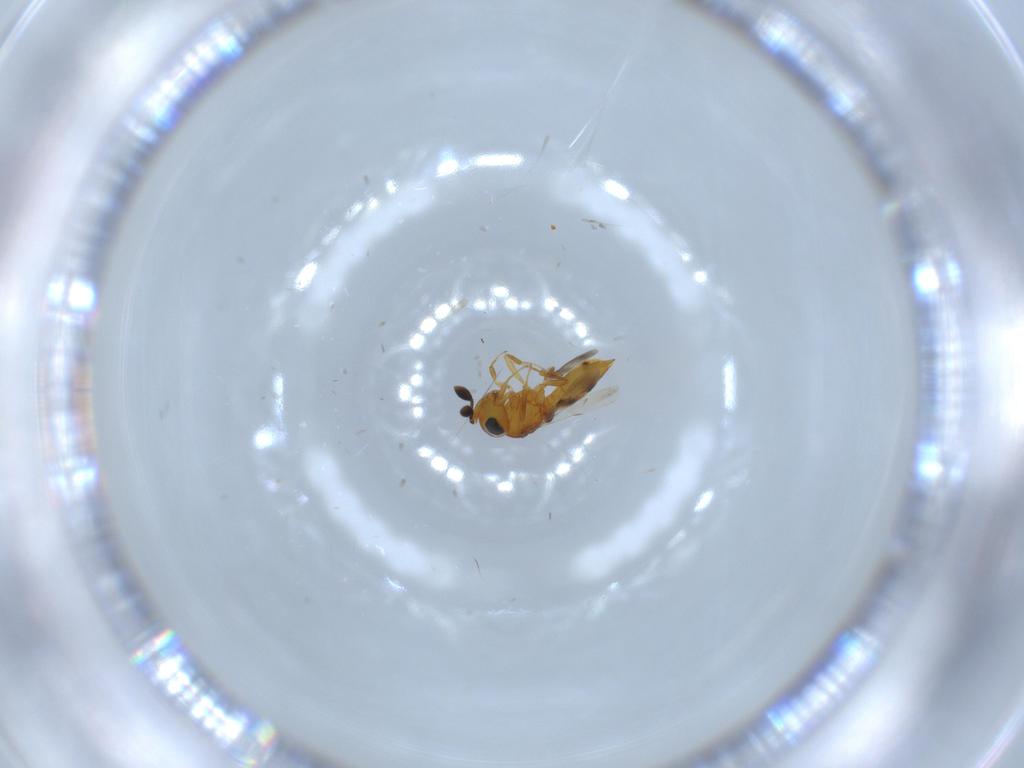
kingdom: Animalia
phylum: Arthropoda
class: Insecta
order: Hymenoptera
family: Scelionidae
